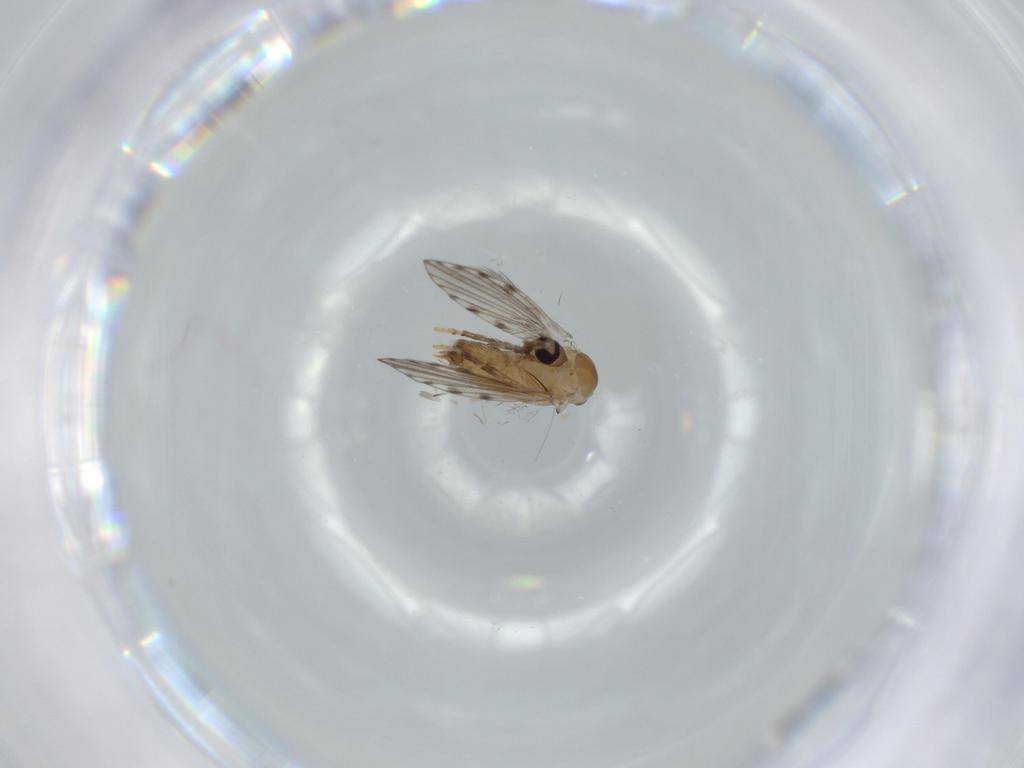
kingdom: Animalia
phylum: Arthropoda
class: Insecta
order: Diptera
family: Psychodidae
